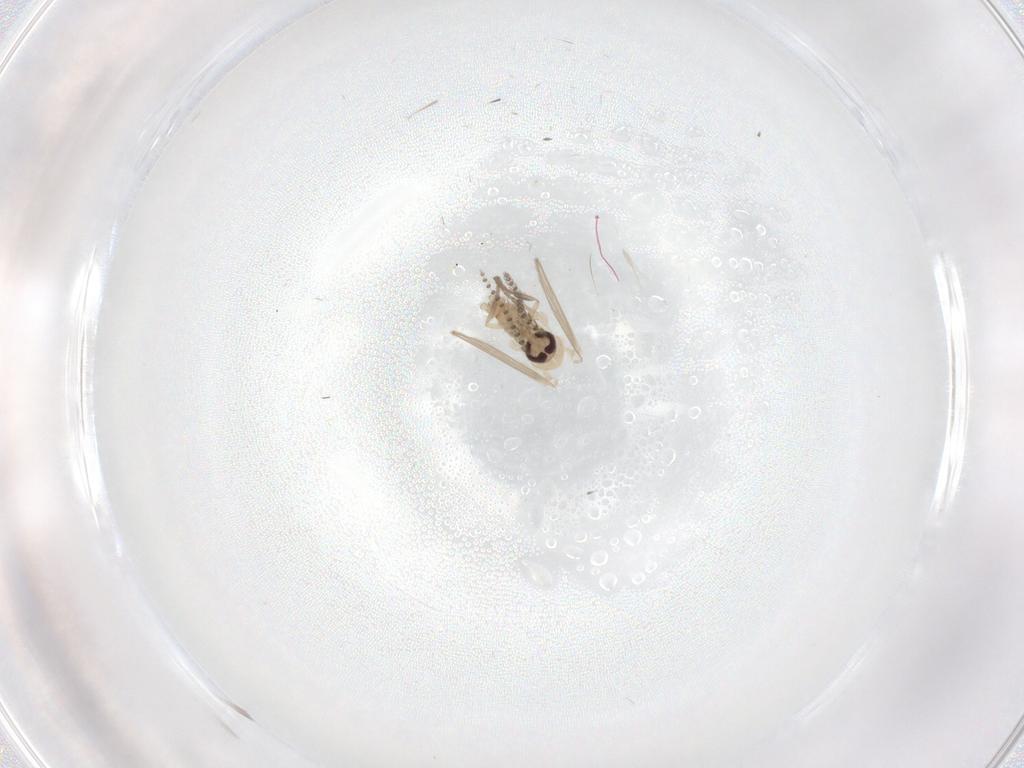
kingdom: Animalia
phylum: Arthropoda
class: Insecta
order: Diptera
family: Psychodidae
